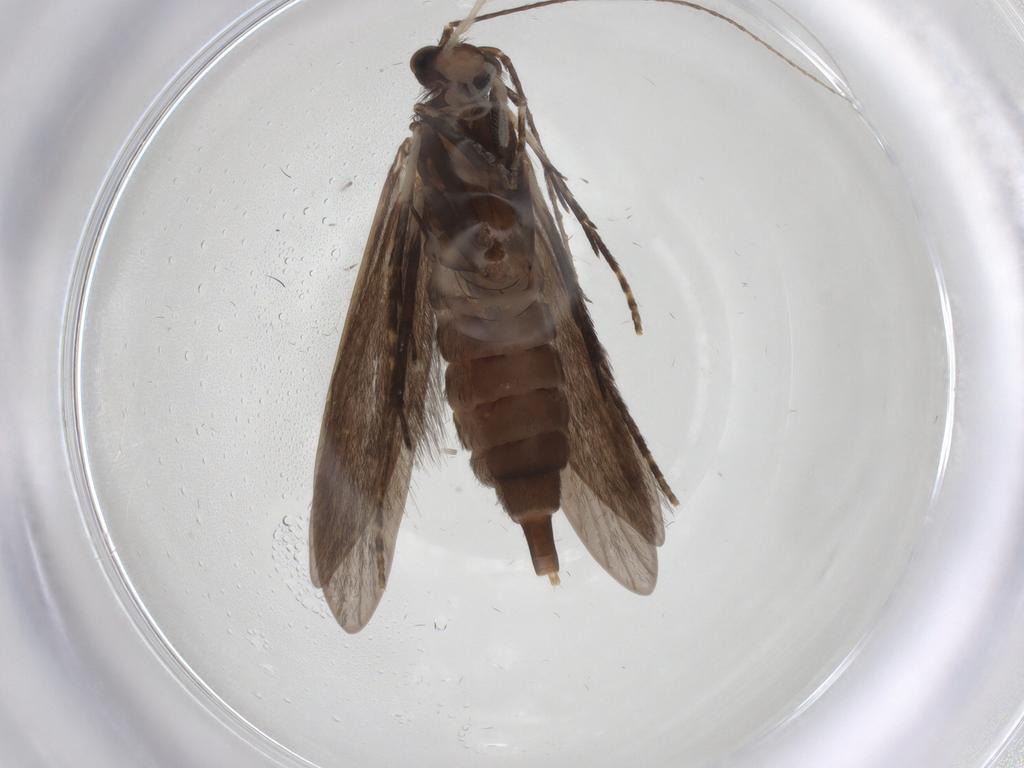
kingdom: Animalia
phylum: Arthropoda
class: Insecta
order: Trichoptera
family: Xiphocentronidae
